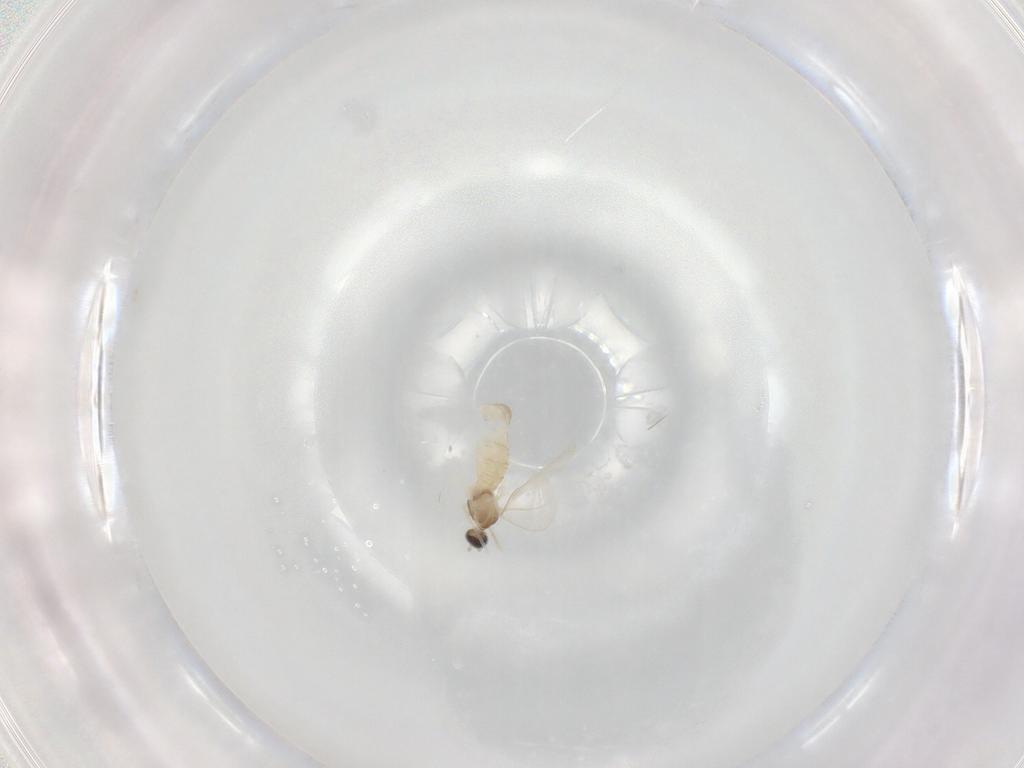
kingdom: Animalia
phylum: Arthropoda
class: Insecta
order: Diptera
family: Cecidomyiidae
